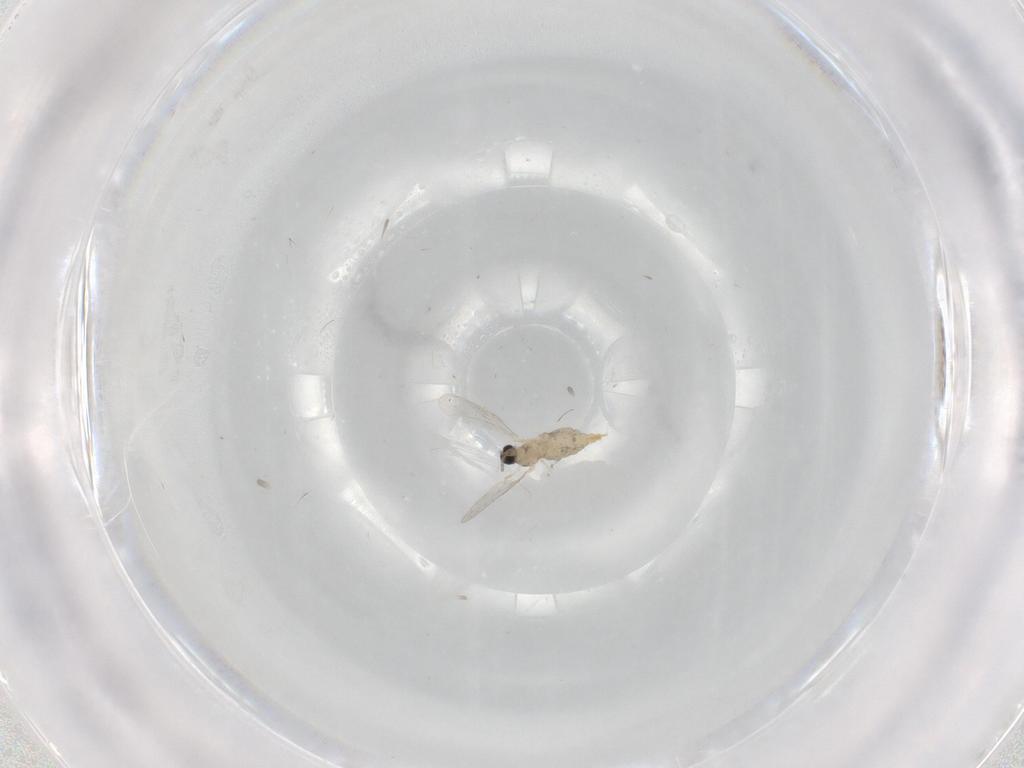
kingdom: Animalia
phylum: Arthropoda
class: Insecta
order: Diptera
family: Cecidomyiidae
